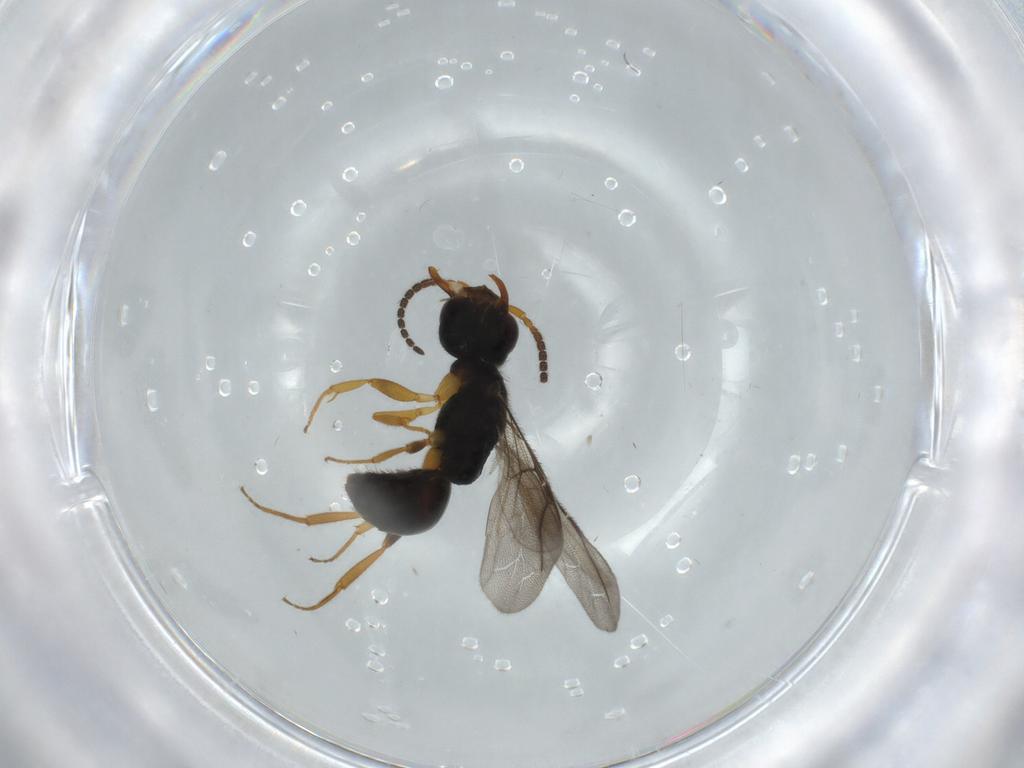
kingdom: Animalia
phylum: Arthropoda
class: Insecta
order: Hymenoptera
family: Bethylidae
